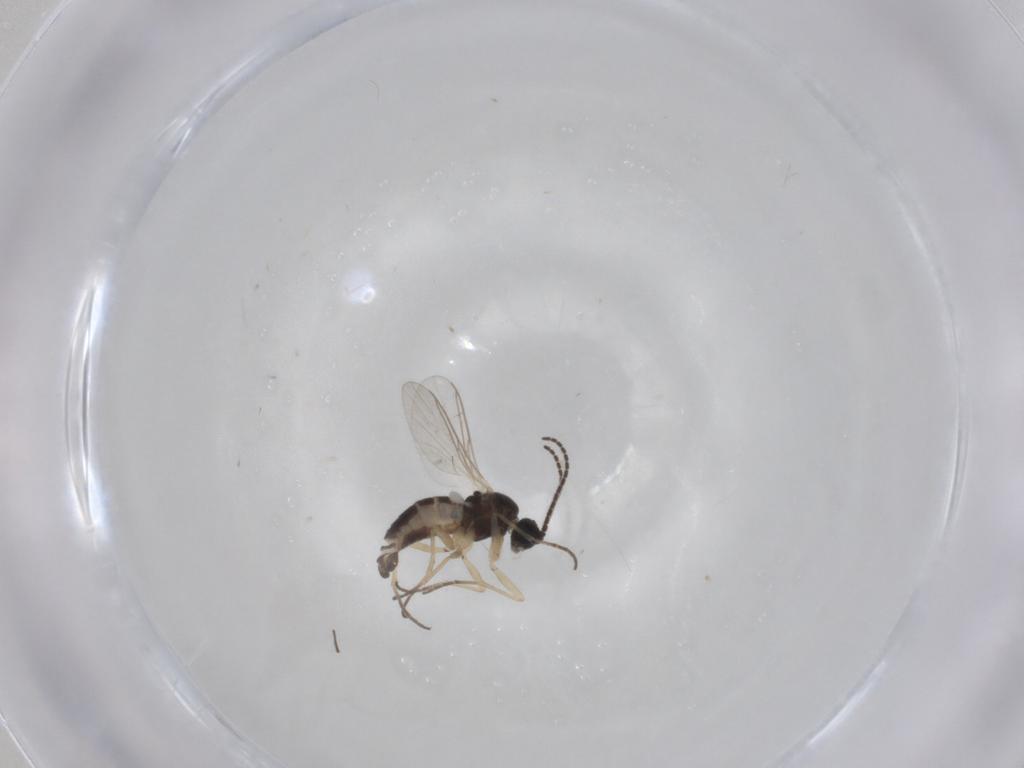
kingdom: Animalia
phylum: Arthropoda
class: Insecta
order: Diptera
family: Sciaridae
